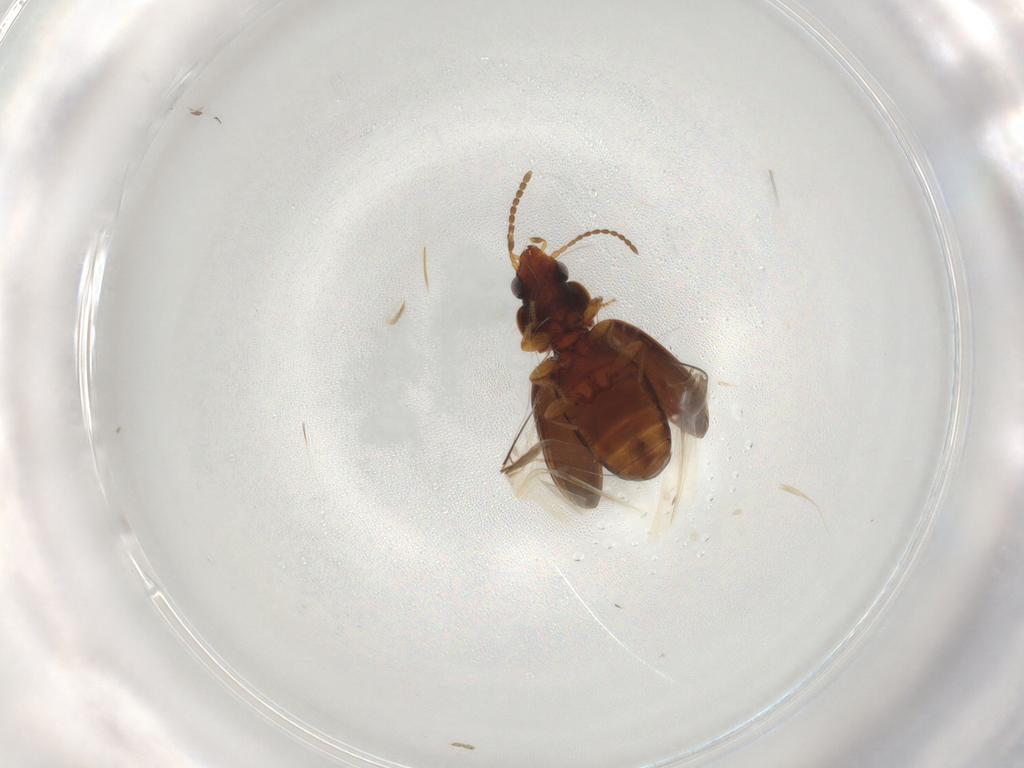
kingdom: Animalia
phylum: Arthropoda
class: Insecta
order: Coleoptera
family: Carabidae
